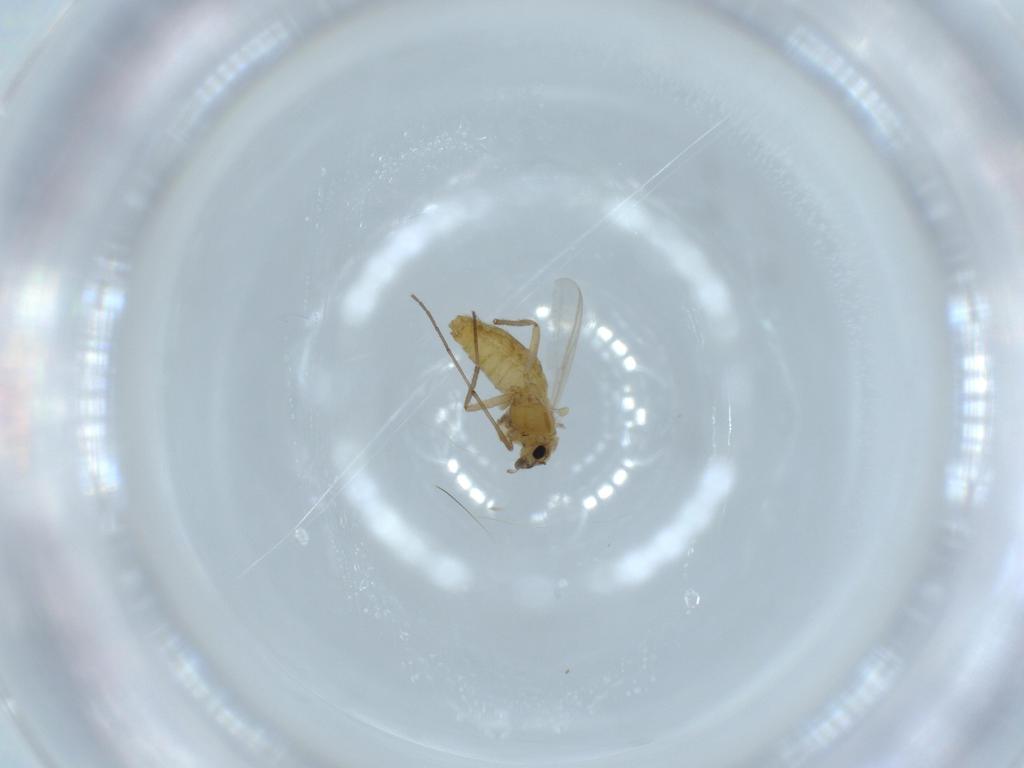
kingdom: Animalia
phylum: Arthropoda
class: Insecta
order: Diptera
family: Chironomidae
